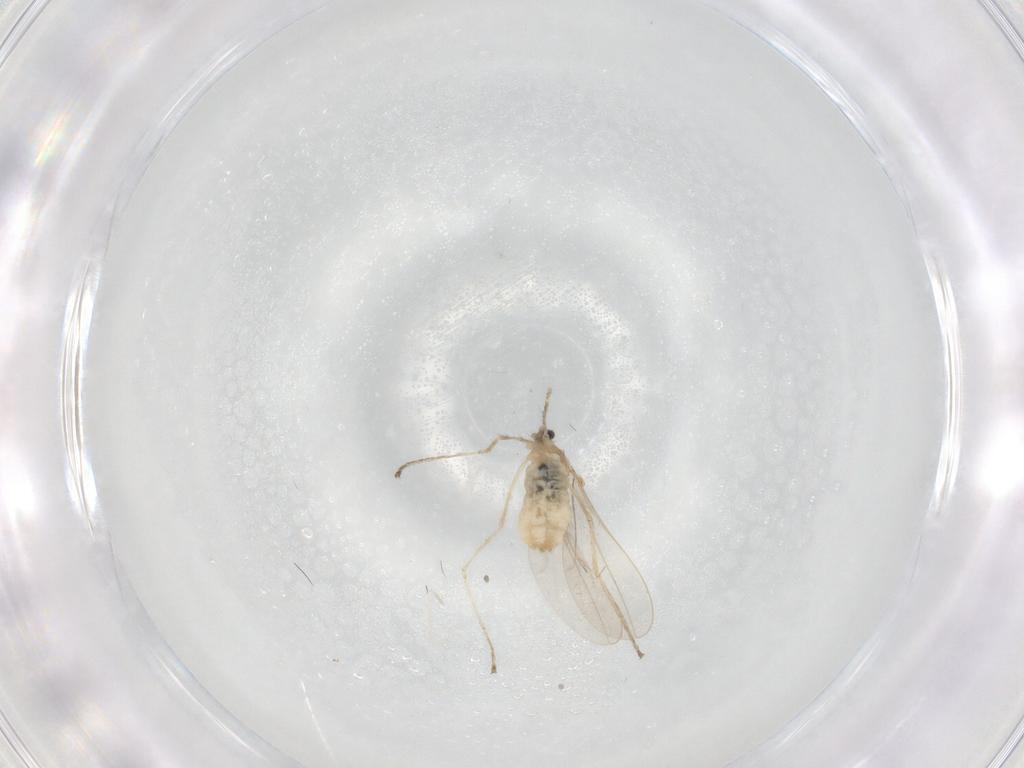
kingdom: Animalia
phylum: Arthropoda
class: Insecta
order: Diptera
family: Cecidomyiidae
